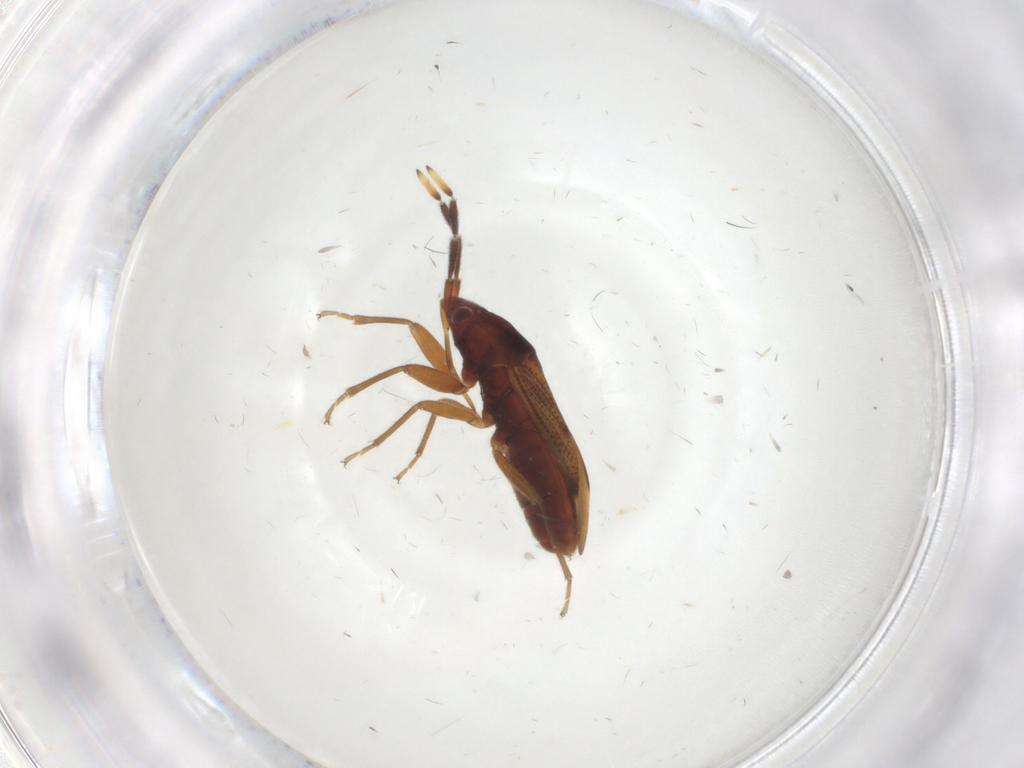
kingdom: Animalia
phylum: Arthropoda
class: Insecta
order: Hemiptera
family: Rhyparochromidae
